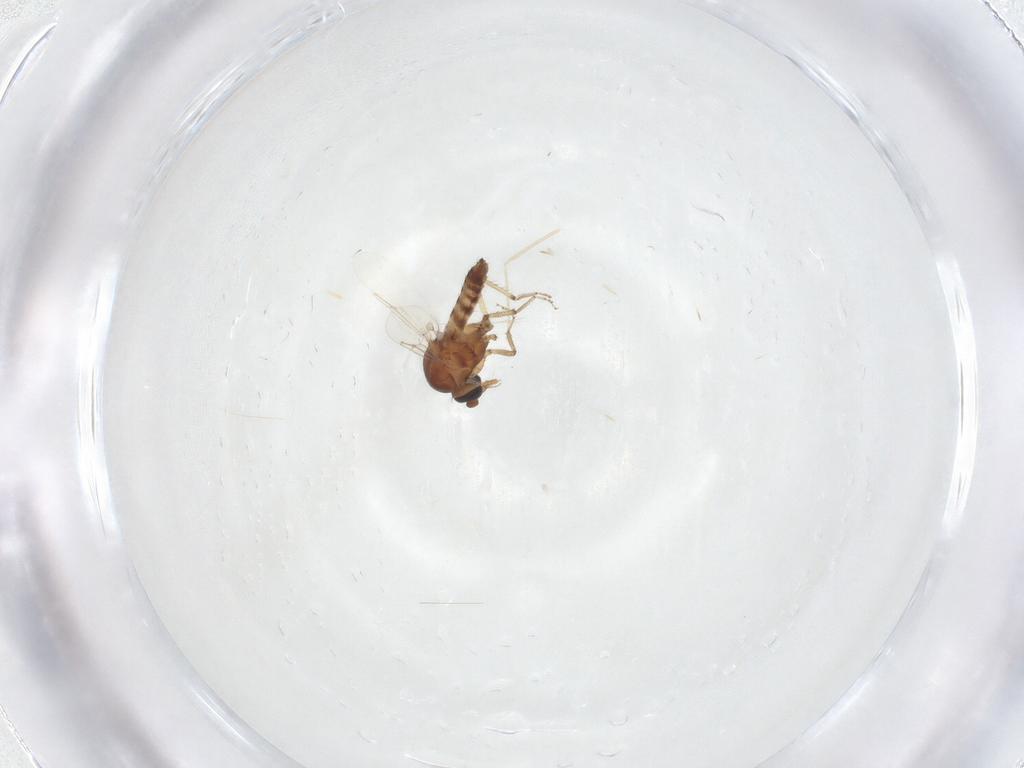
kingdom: Animalia
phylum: Arthropoda
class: Insecta
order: Diptera
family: Ceratopogonidae
